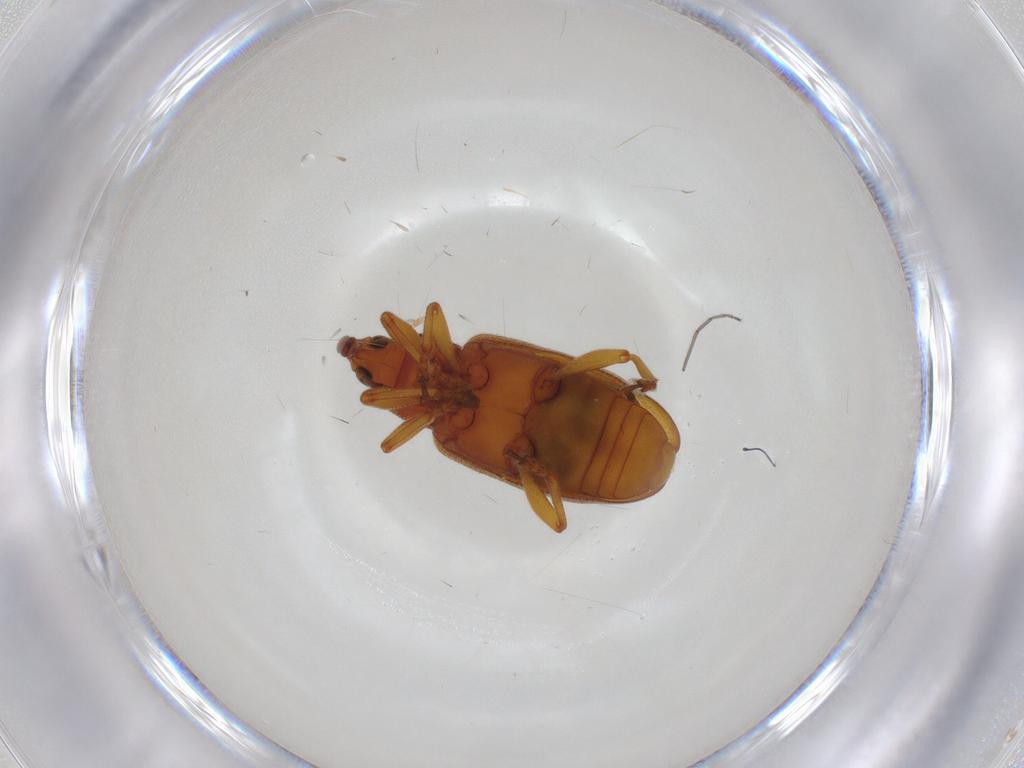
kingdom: Animalia
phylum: Arthropoda
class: Insecta
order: Coleoptera
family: Curculionidae
